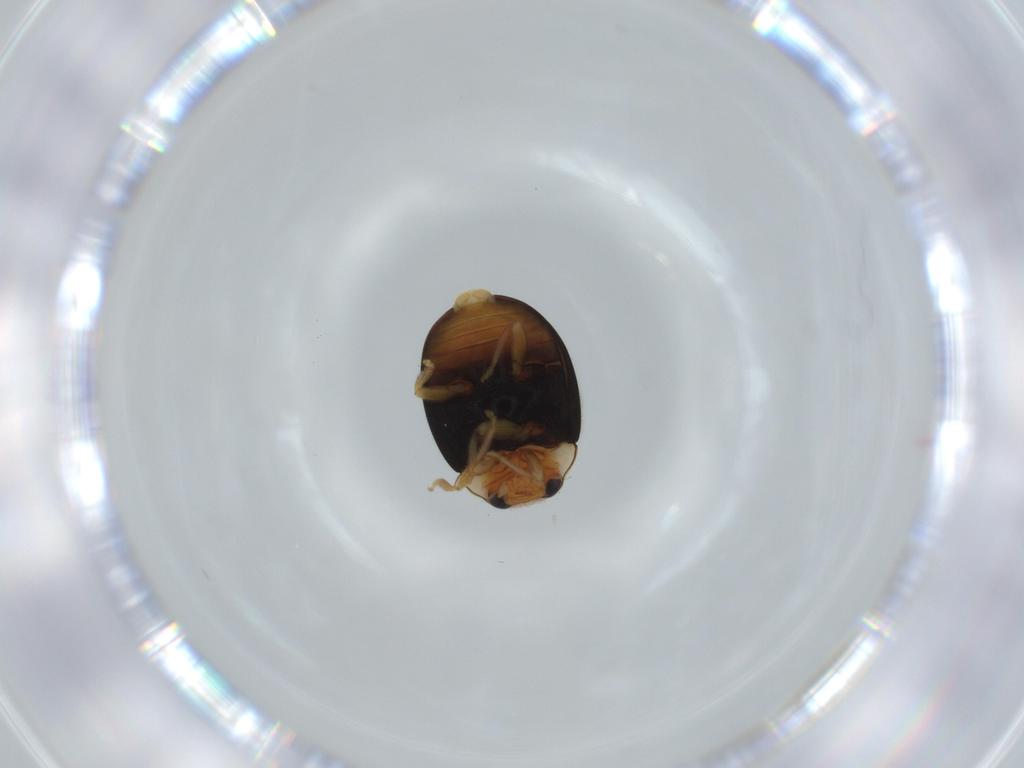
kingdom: Animalia
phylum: Arthropoda
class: Insecta
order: Coleoptera
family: Coccinellidae
